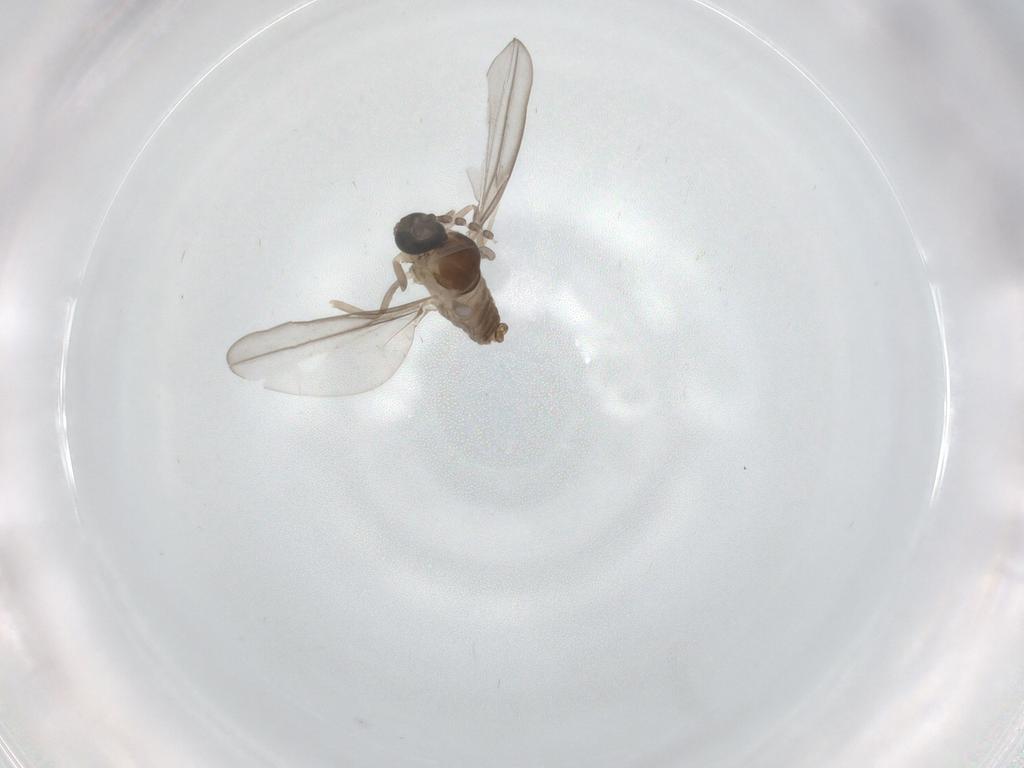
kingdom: Animalia
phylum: Arthropoda
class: Insecta
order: Diptera
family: Cecidomyiidae
